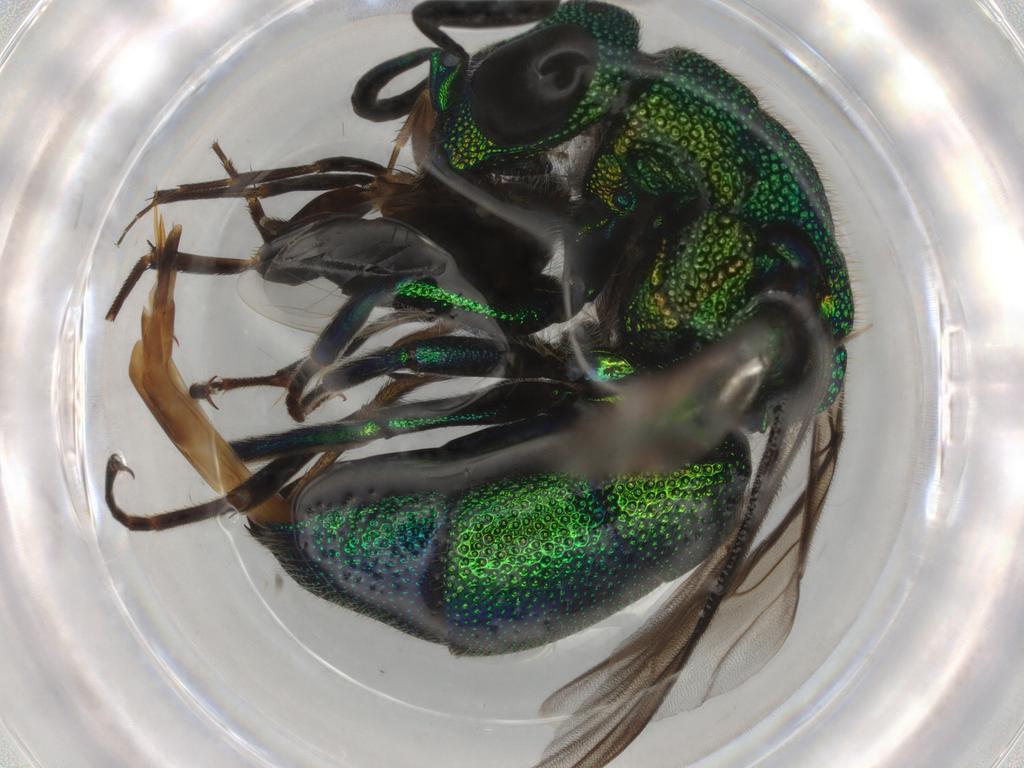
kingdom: Animalia
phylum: Arthropoda
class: Insecta
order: Hymenoptera
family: Chrysididae
